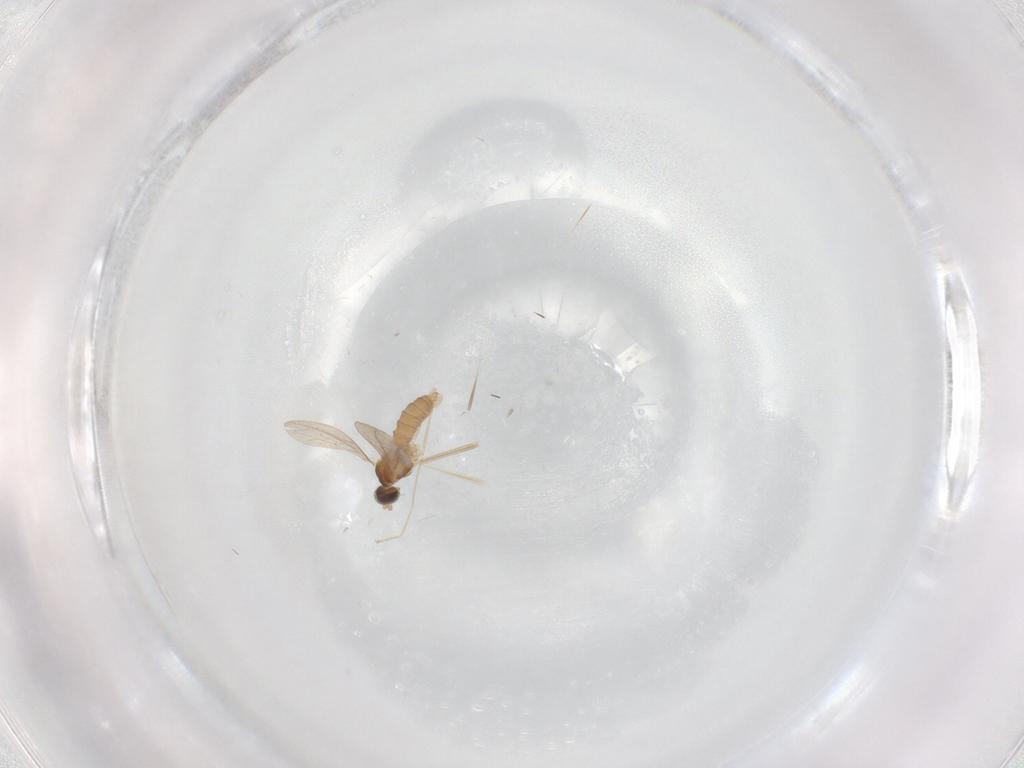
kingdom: Animalia
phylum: Arthropoda
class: Insecta
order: Diptera
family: Cecidomyiidae
